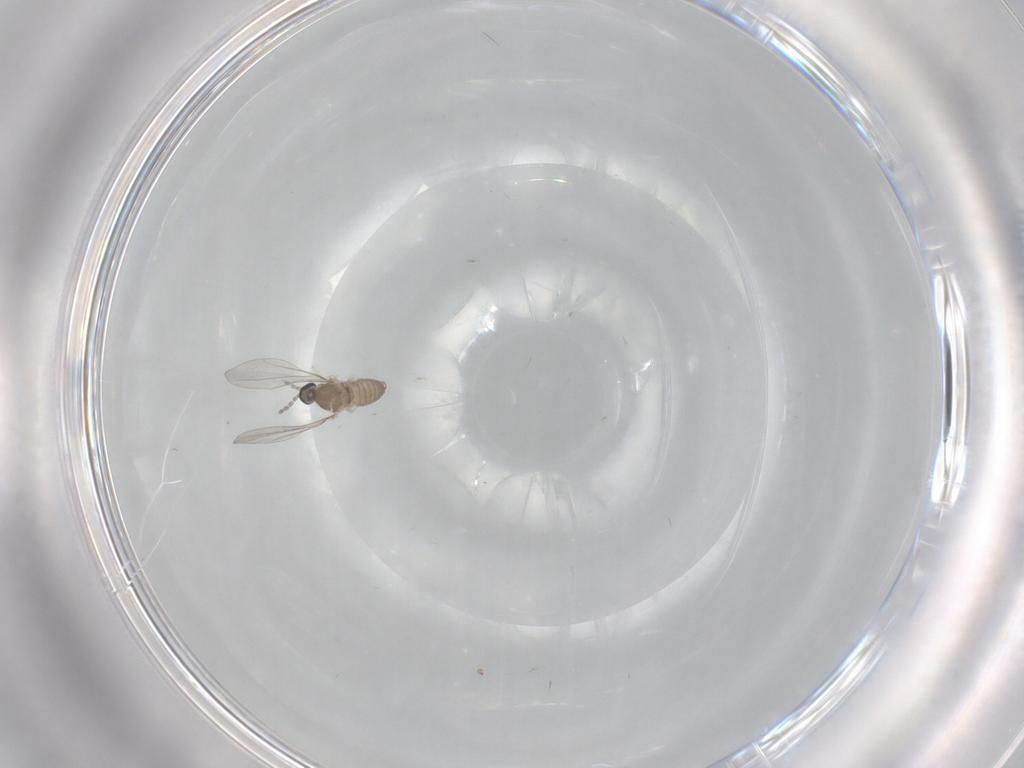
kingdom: Animalia
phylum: Arthropoda
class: Insecta
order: Diptera
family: Cecidomyiidae
